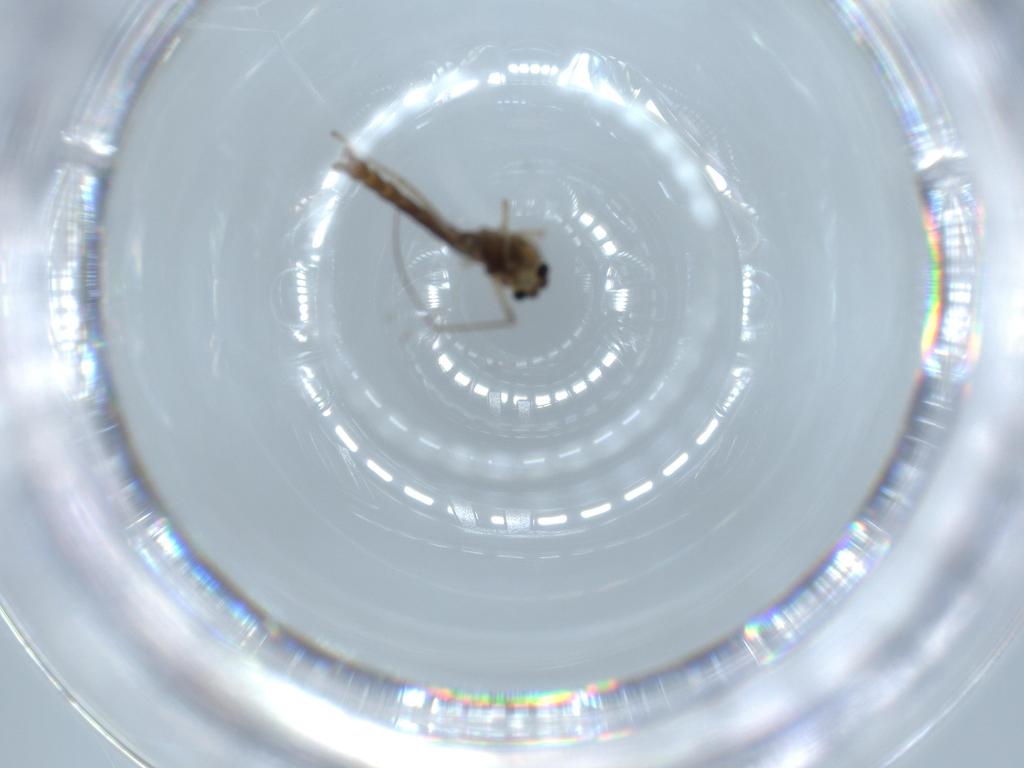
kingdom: Animalia
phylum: Arthropoda
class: Insecta
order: Diptera
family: Chironomidae
